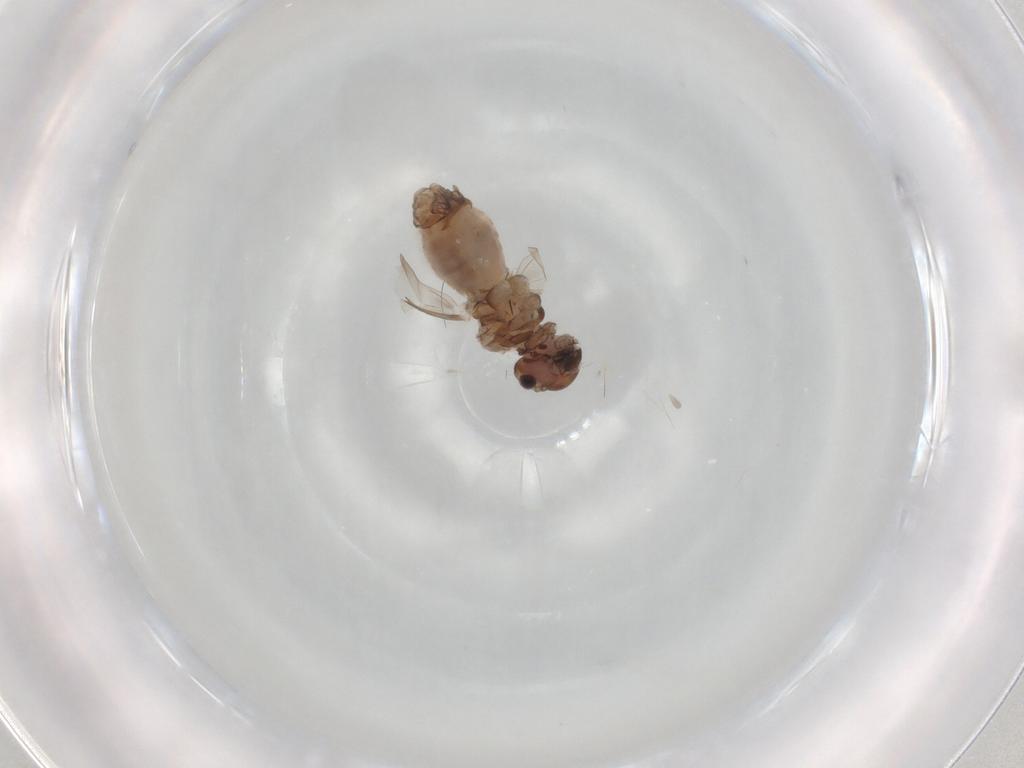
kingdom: Animalia
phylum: Arthropoda
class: Insecta
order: Psocodea
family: Peripsocidae
